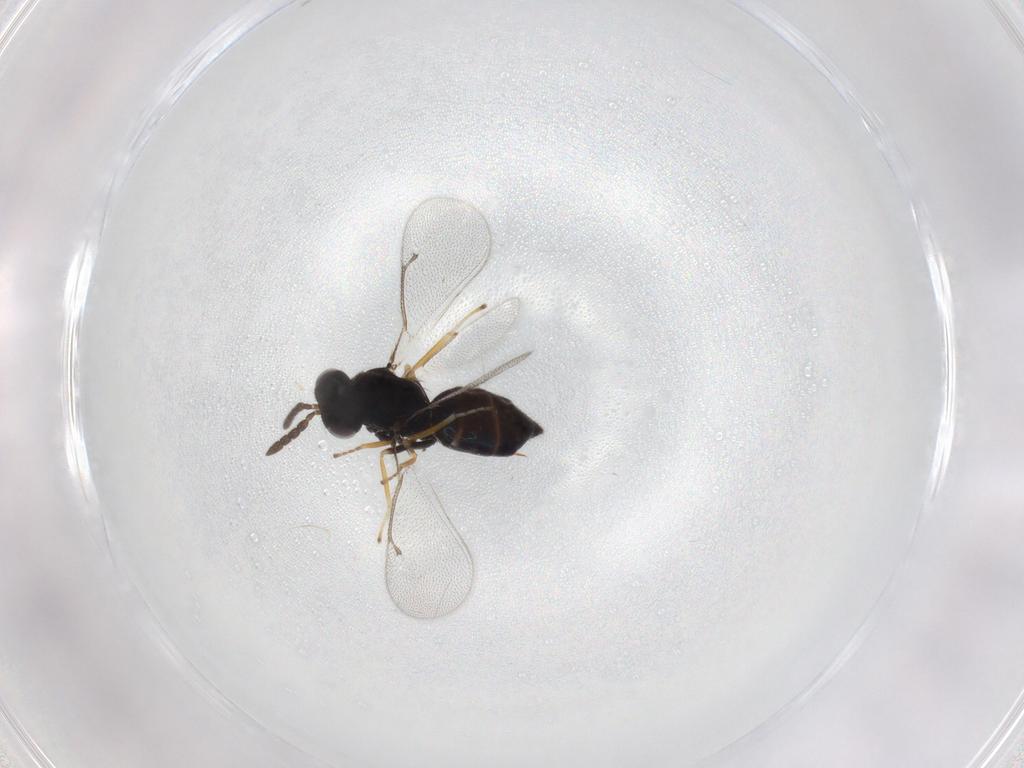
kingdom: Animalia
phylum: Arthropoda
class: Insecta
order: Hymenoptera
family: Eulophidae
